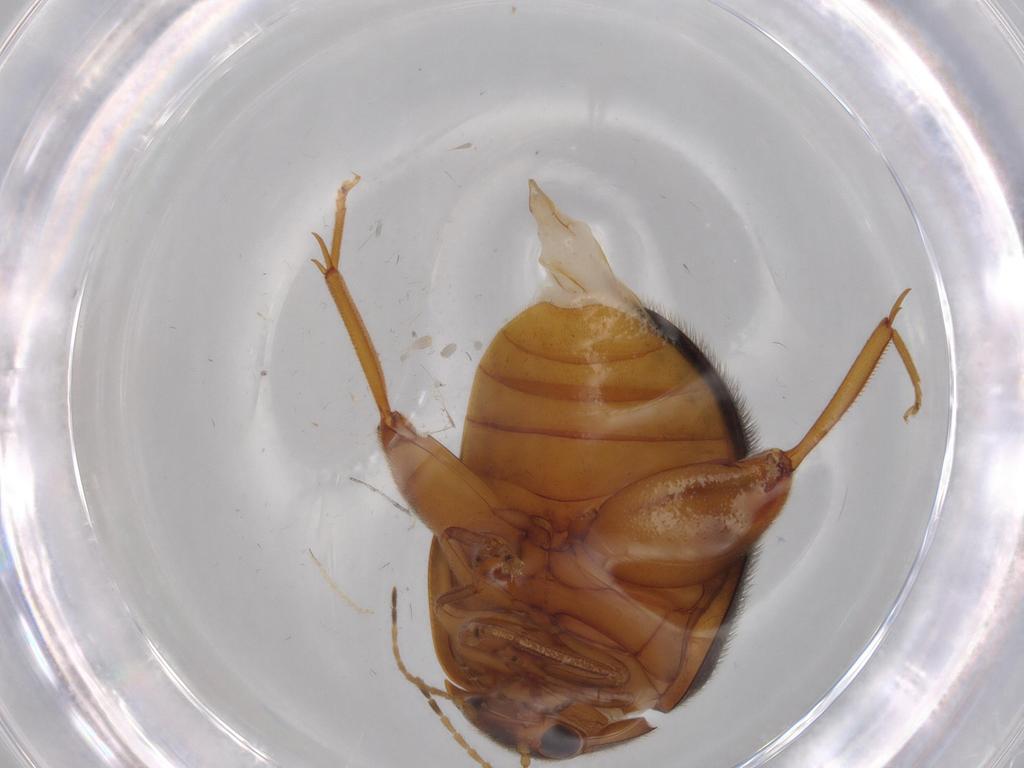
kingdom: Animalia
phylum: Arthropoda
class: Insecta
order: Coleoptera
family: Scirtidae
